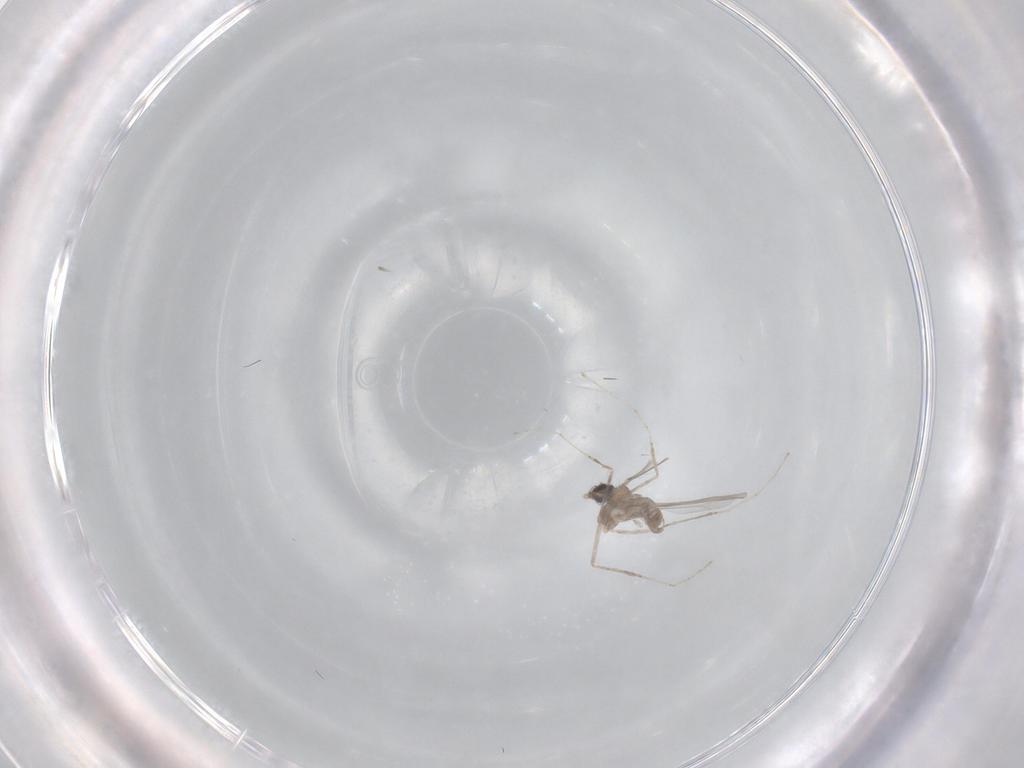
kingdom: Animalia
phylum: Arthropoda
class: Insecta
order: Diptera
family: Cecidomyiidae
